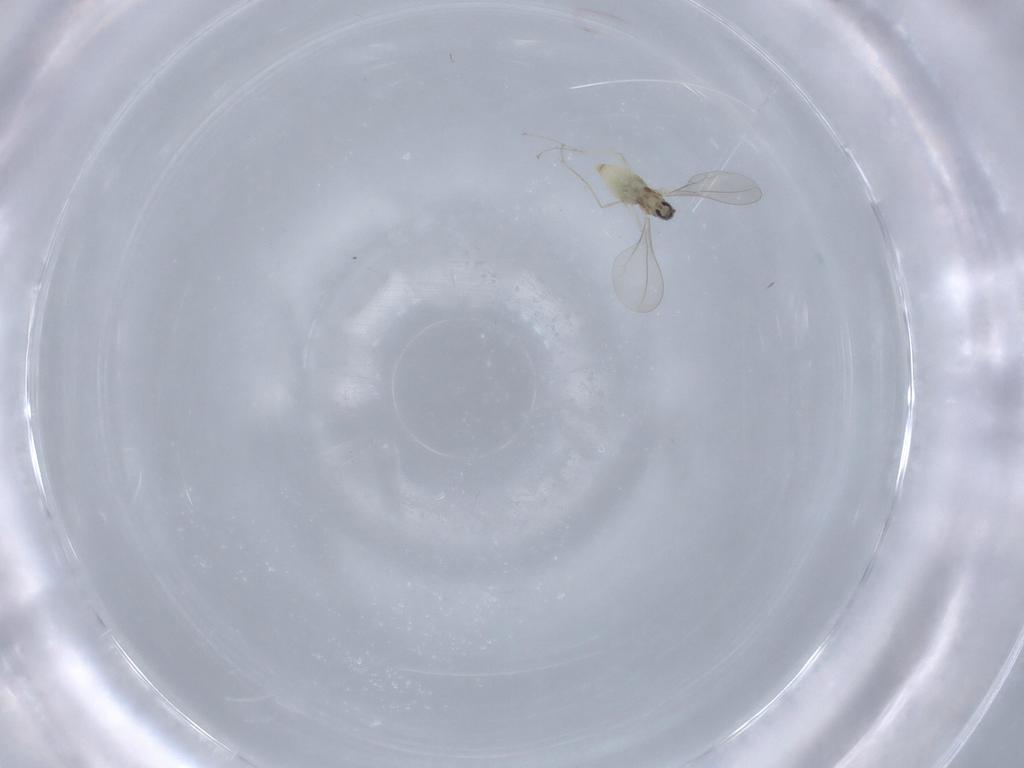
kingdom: Animalia
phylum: Arthropoda
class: Insecta
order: Diptera
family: Cecidomyiidae
